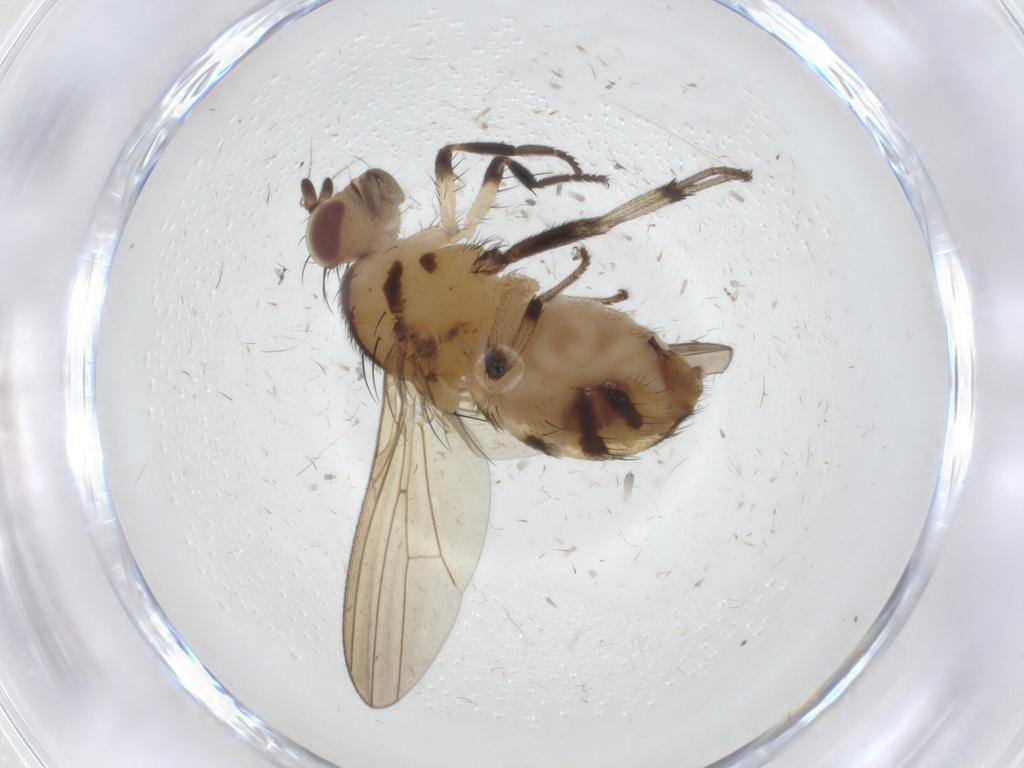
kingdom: Animalia
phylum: Arthropoda
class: Insecta
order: Diptera
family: Lauxaniidae
